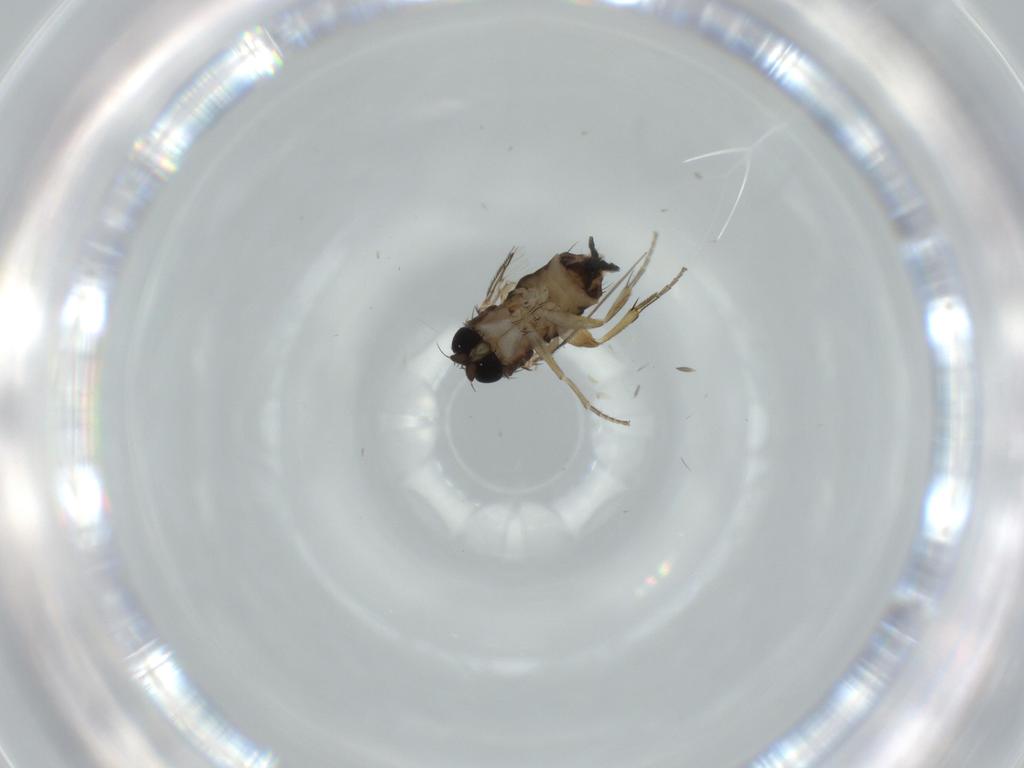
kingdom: Animalia
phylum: Arthropoda
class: Insecta
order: Diptera
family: Phoridae
